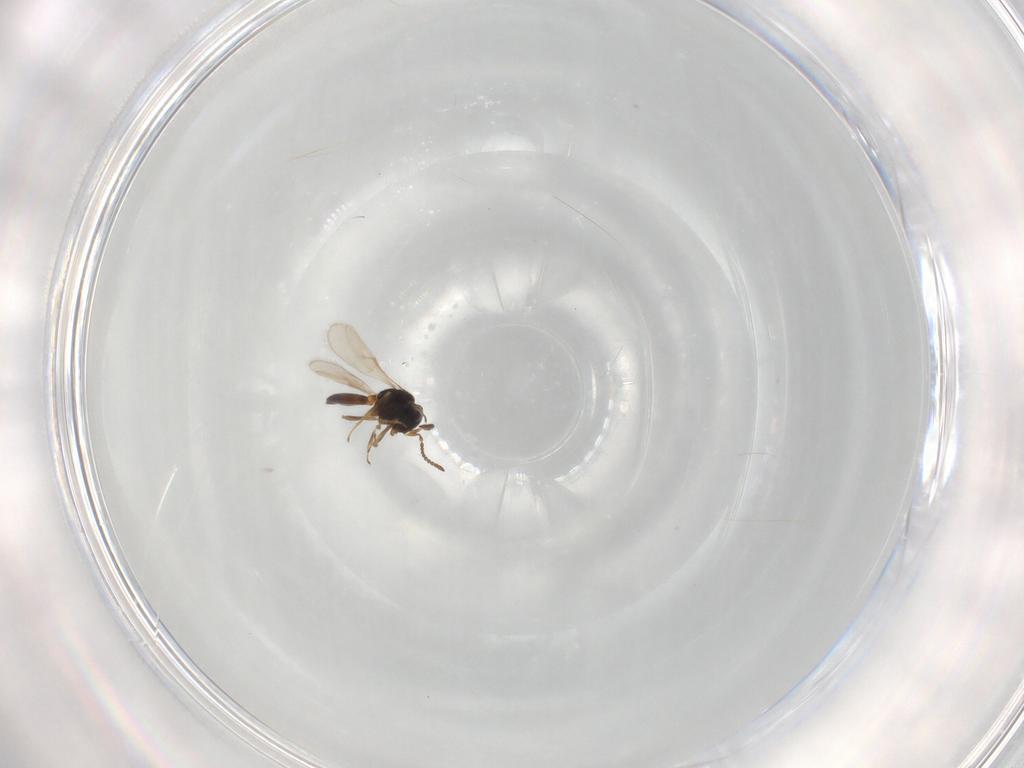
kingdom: Animalia
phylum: Arthropoda
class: Insecta
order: Hymenoptera
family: Scelionidae
